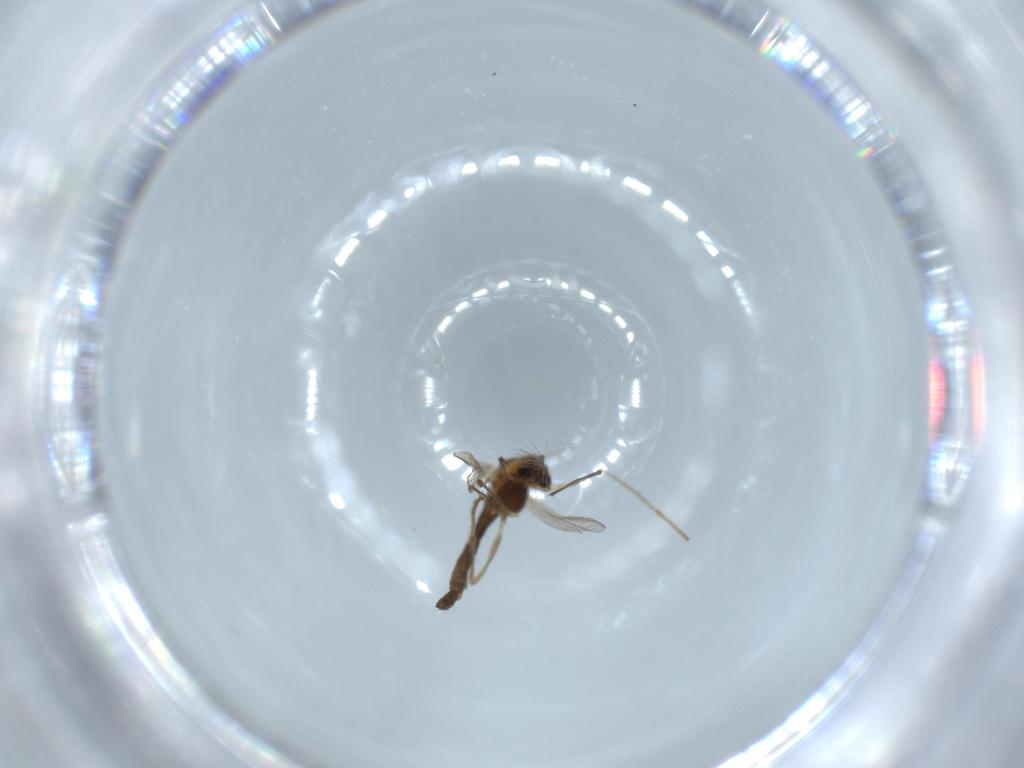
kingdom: Animalia
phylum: Arthropoda
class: Insecta
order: Diptera
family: Chironomidae
